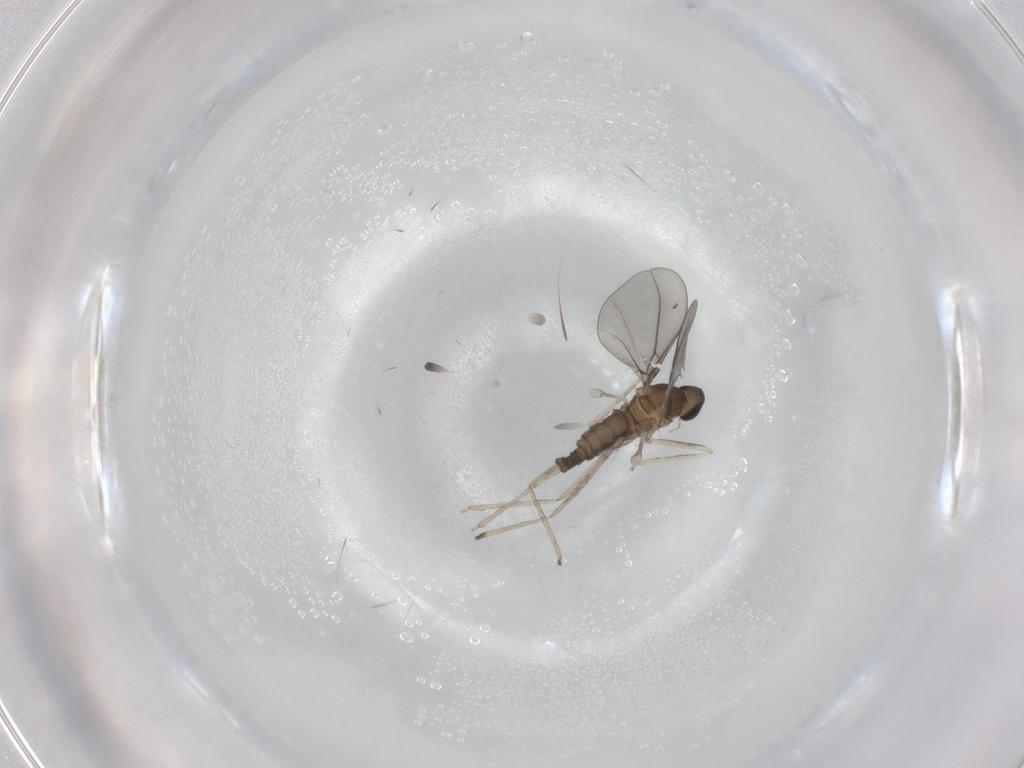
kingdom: Animalia
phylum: Arthropoda
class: Insecta
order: Diptera
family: Cecidomyiidae
